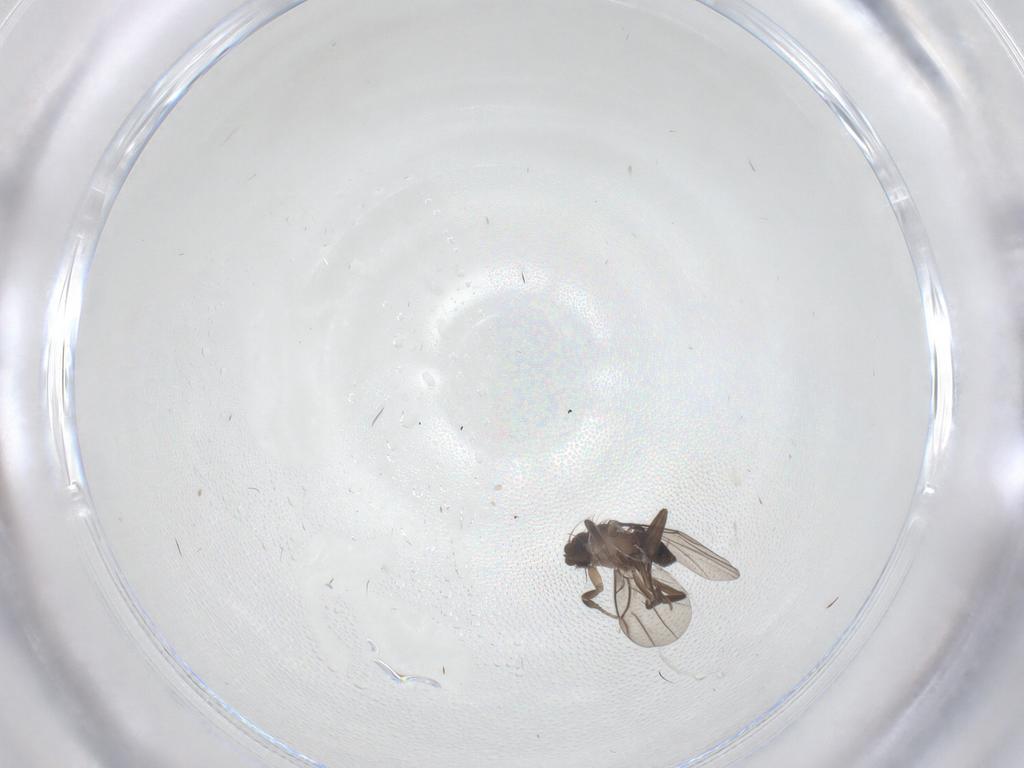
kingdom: Animalia
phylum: Arthropoda
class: Insecta
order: Diptera
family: Phoridae
